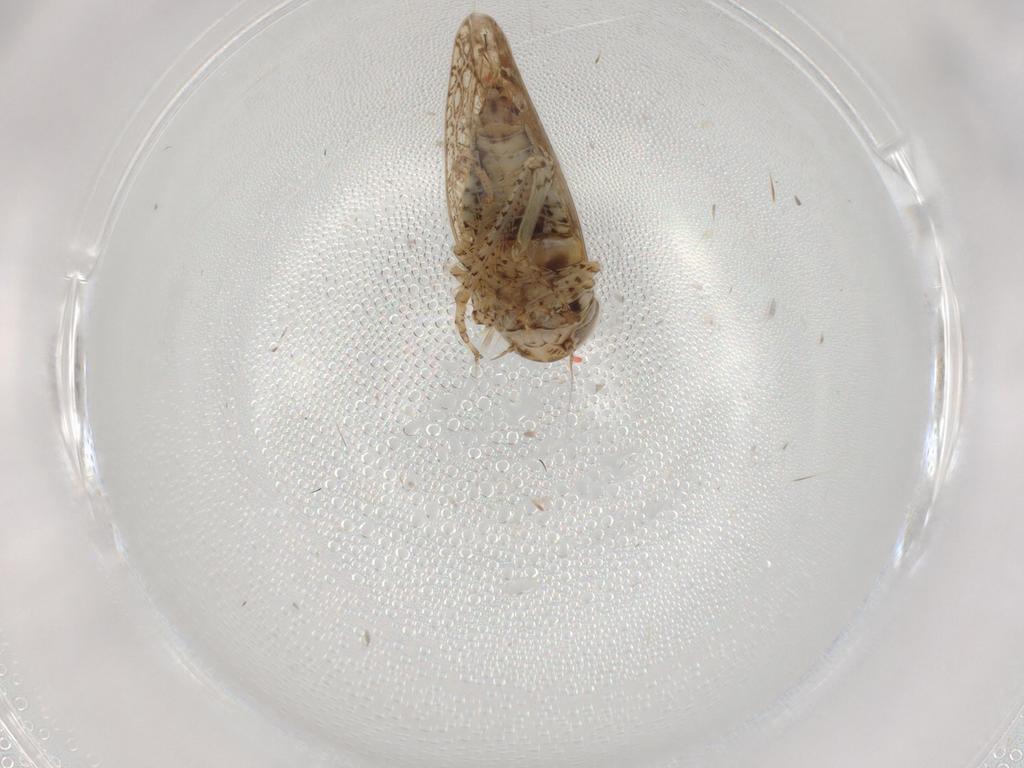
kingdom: Animalia
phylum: Arthropoda
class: Insecta
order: Hemiptera
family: Cicadellidae
